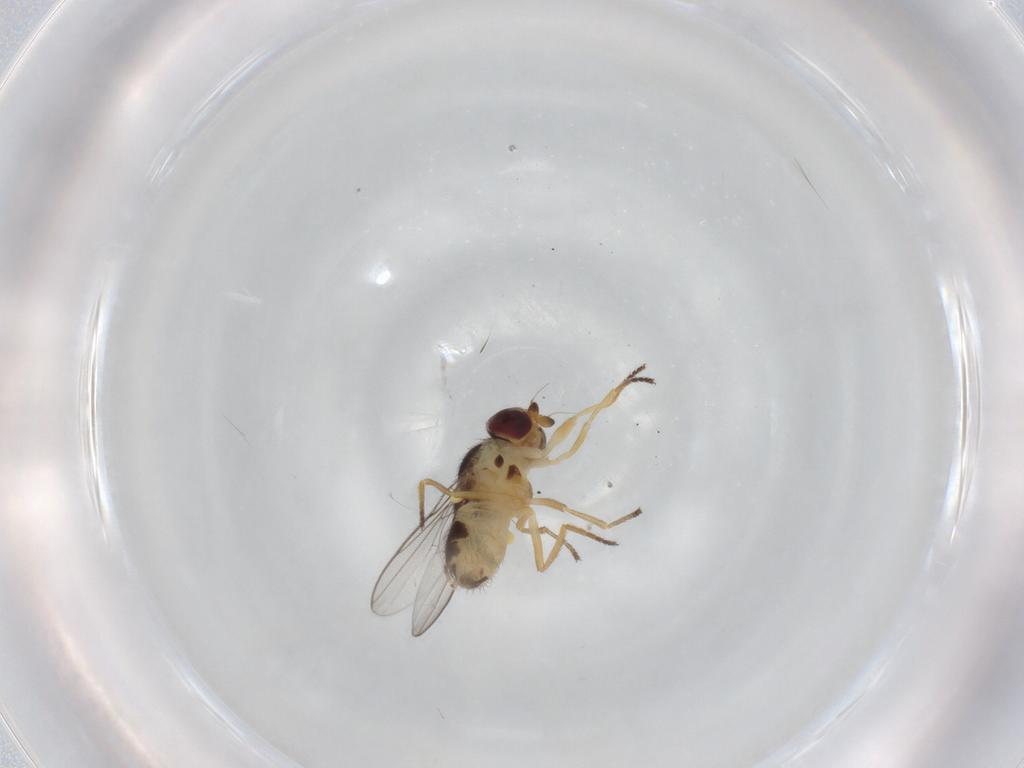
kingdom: Animalia
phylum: Arthropoda
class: Insecta
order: Diptera
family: Chloropidae
